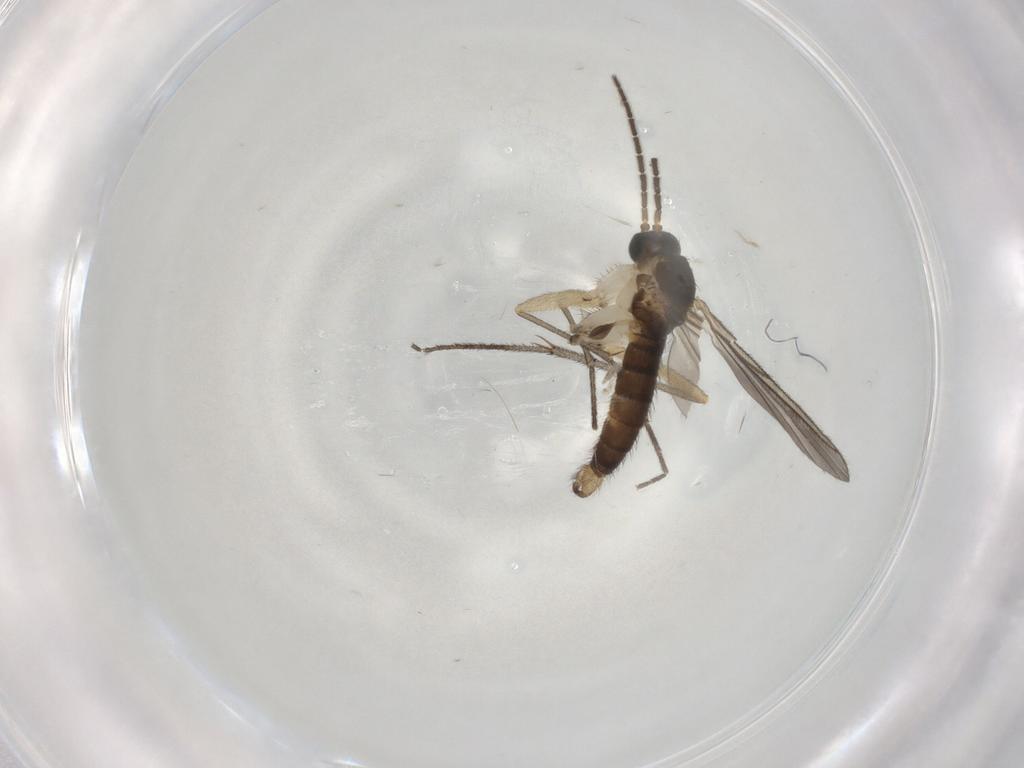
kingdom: Animalia
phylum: Arthropoda
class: Insecta
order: Diptera
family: Sciaridae
